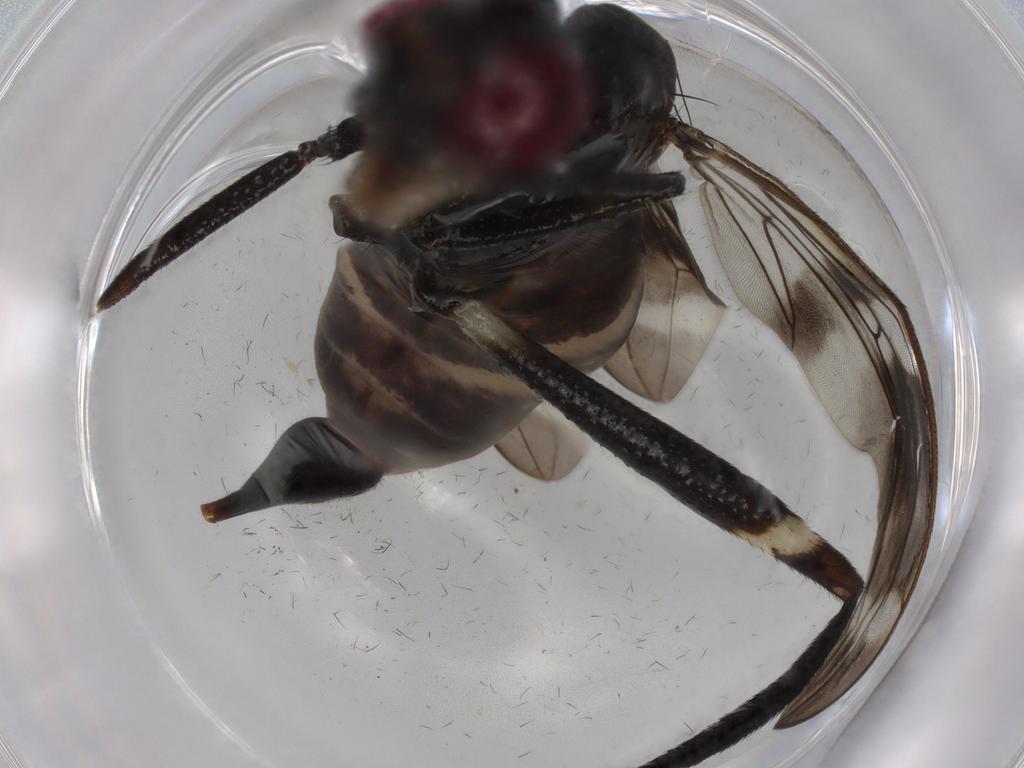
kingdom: Animalia
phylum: Arthropoda
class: Insecta
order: Diptera
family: Micropezidae
